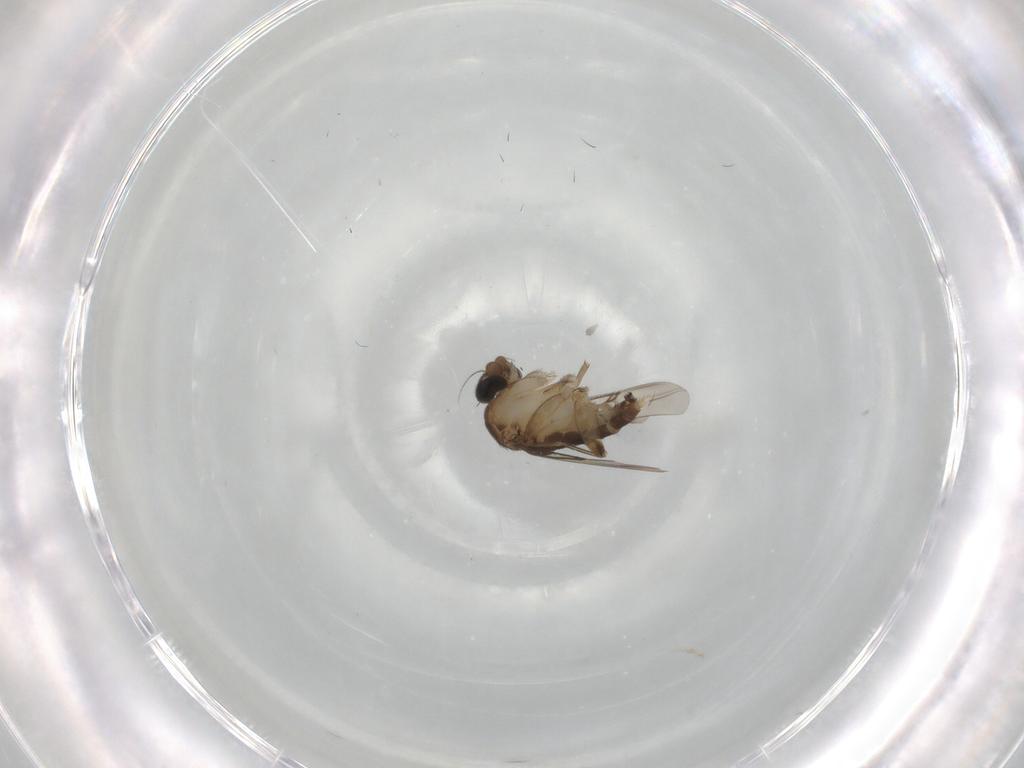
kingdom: Animalia
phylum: Arthropoda
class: Insecta
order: Diptera
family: Phoridae
